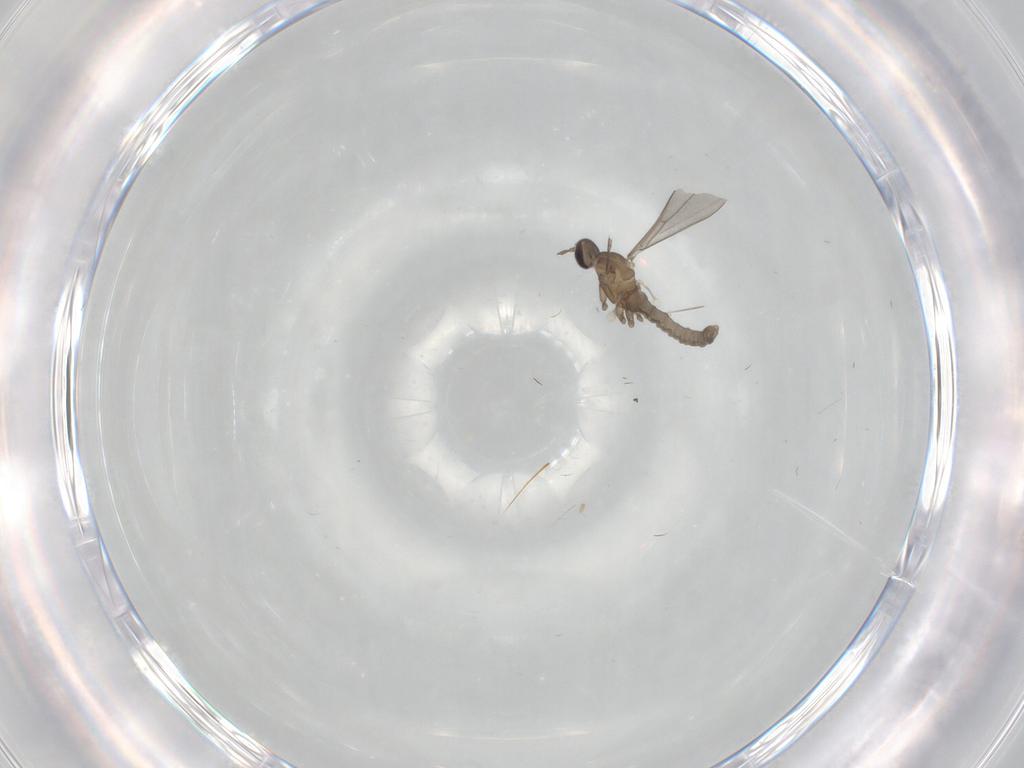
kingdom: Animalia
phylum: Arthropoda
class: Insecta
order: Diptera
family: Cecidomyiidae
